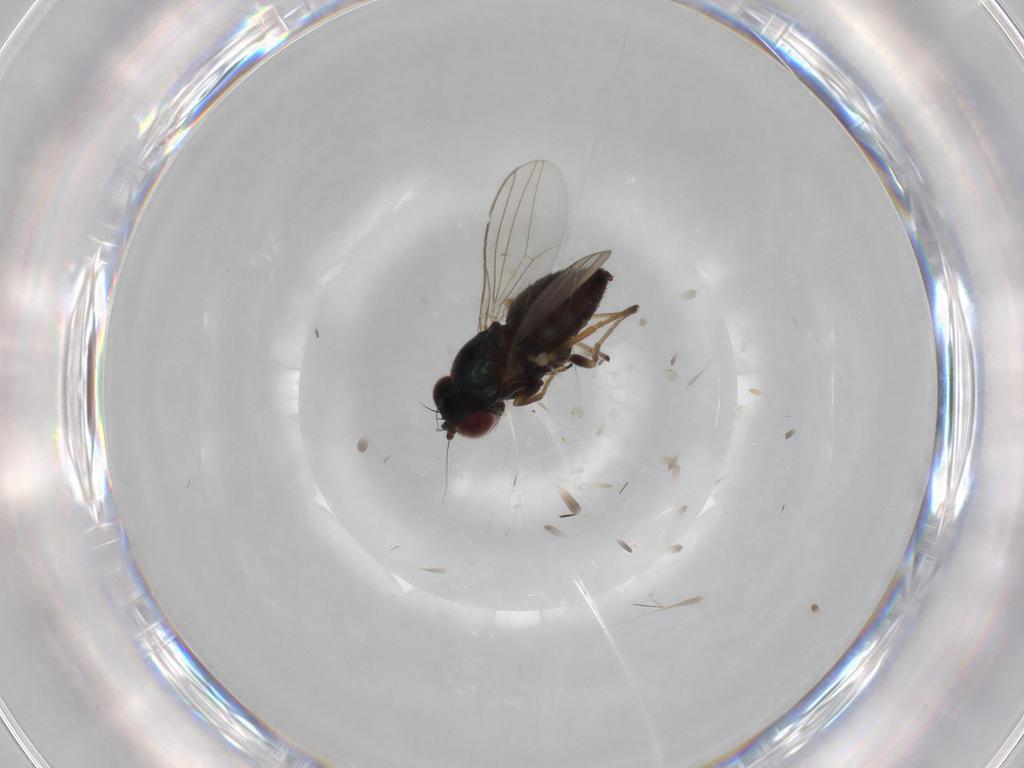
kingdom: Animalia
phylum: Arthropoda
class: Insecta
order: Diptera
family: Dolichopodidae
